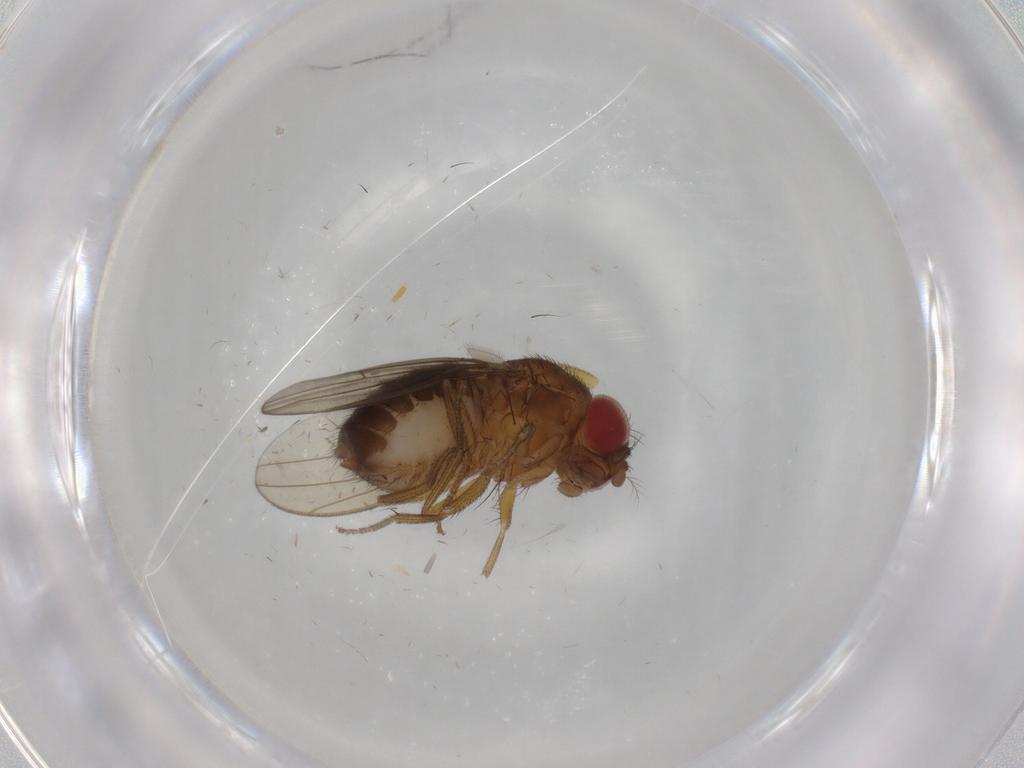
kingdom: Animalia
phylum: Arthropoda
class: Insecta
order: Diptera
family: Drosophilidae
